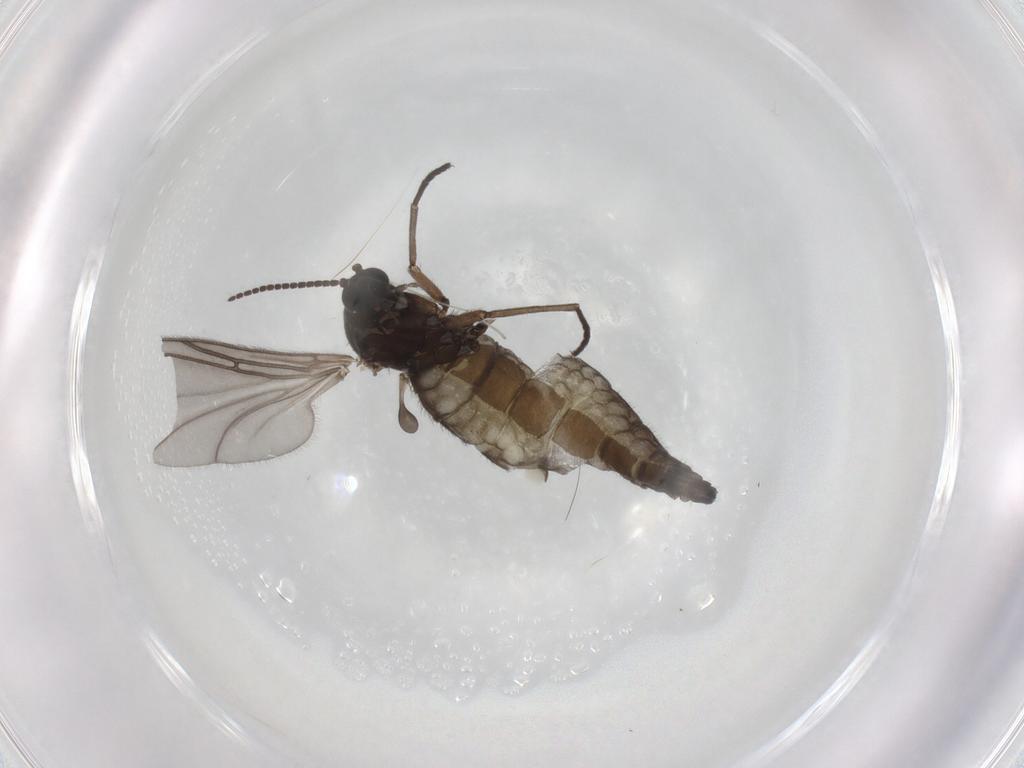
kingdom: Animalia
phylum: Arthropoda
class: Insecta
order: Diptera
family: Sciaridae
